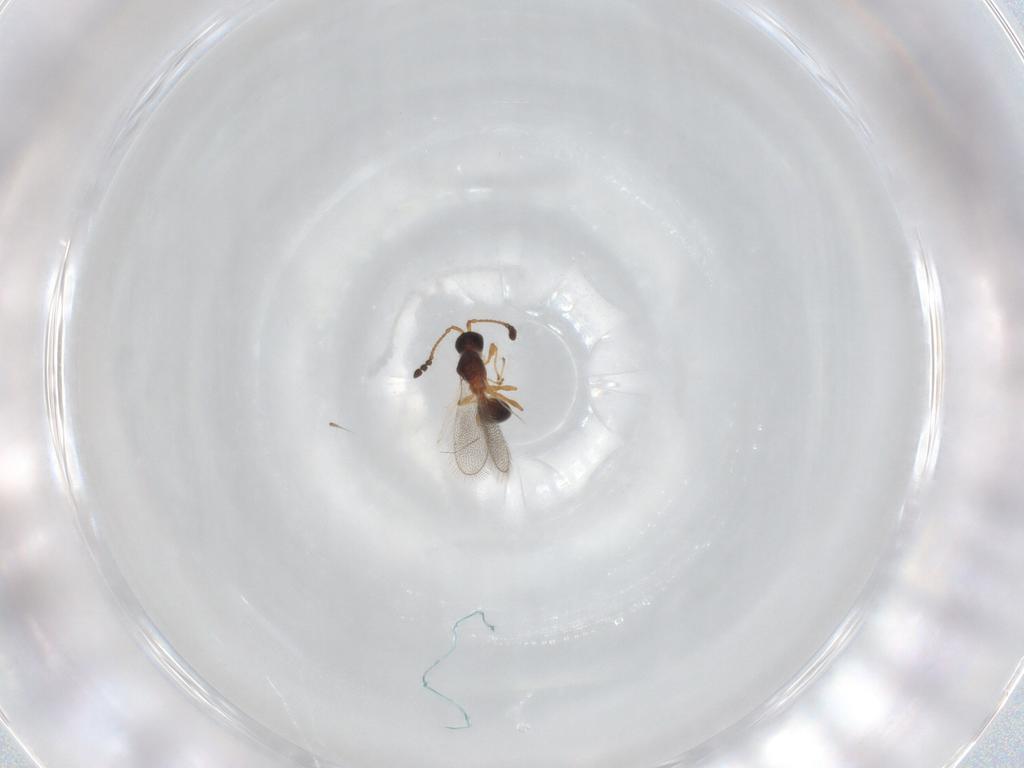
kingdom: Animalia
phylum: Arthropoda
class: Insecta
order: Hymenoptera
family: Diapriidae
